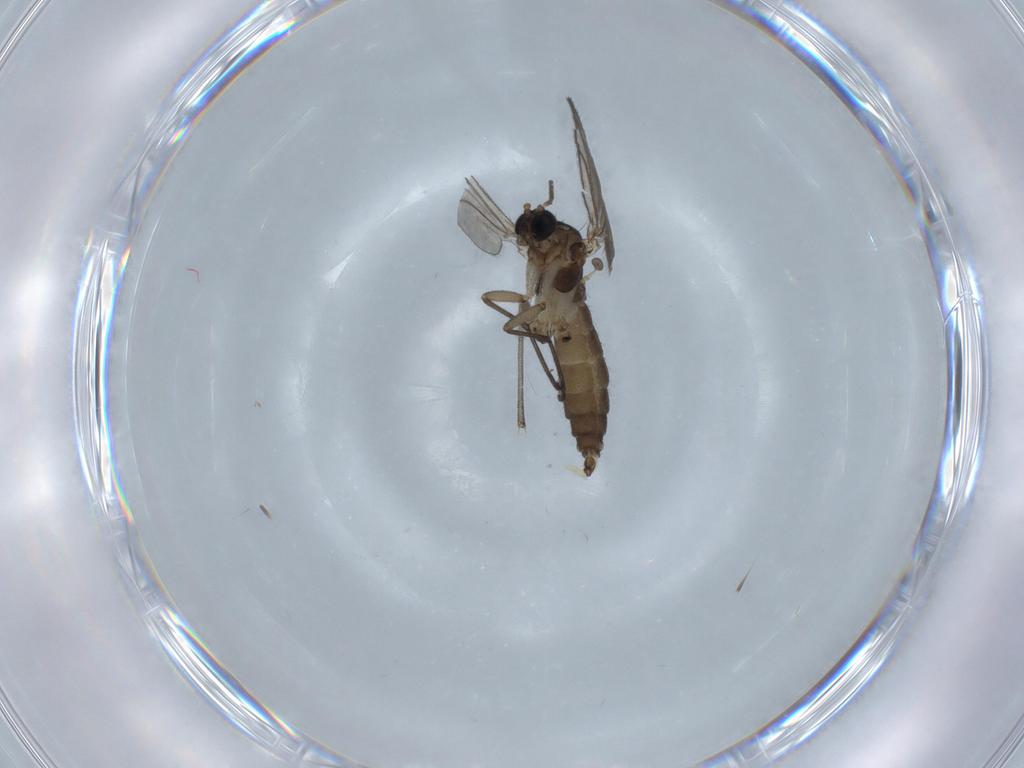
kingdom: Animalia
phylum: Arthropoda
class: Insecta
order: Diptera
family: Sciaridae
